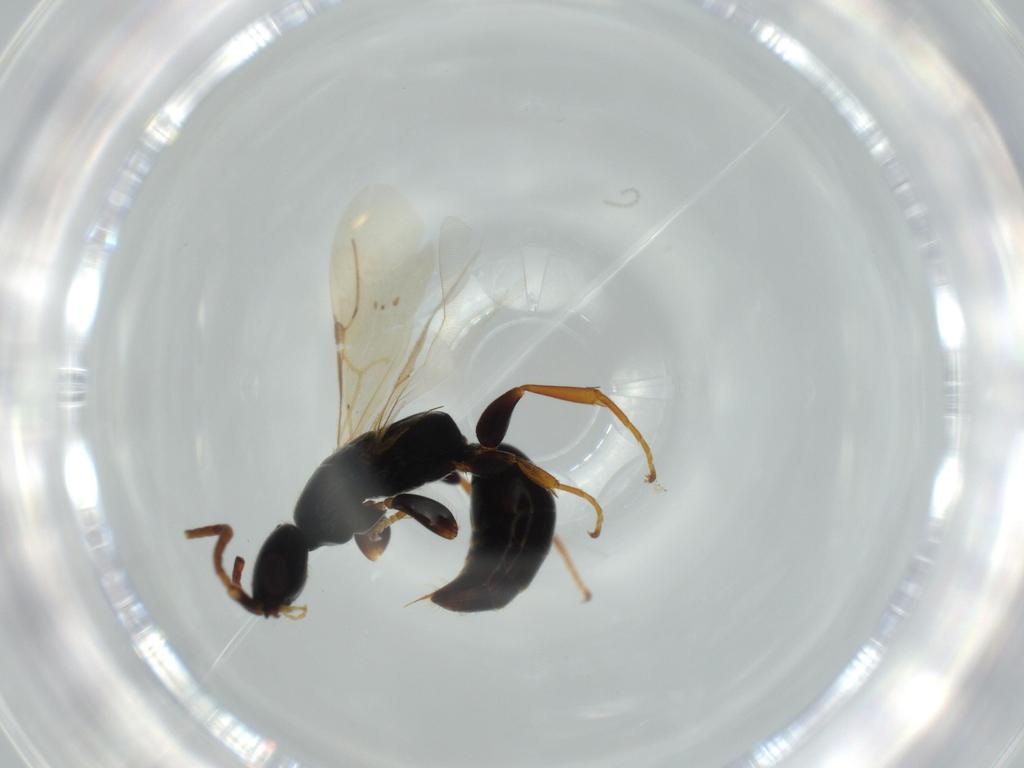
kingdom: Animalia
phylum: Arthropoda
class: Insecta
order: Hymenoptera
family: Bethylidae
